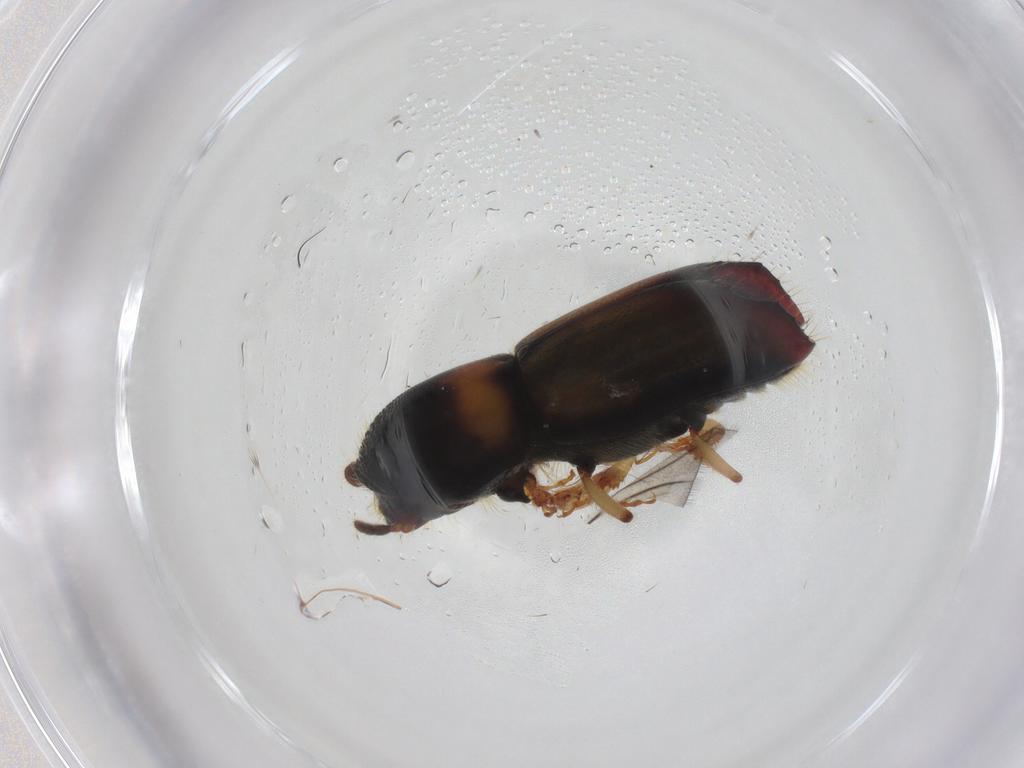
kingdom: Animalia
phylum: Arthropoda
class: Insecta
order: Coleoptera
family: Curculionidae
